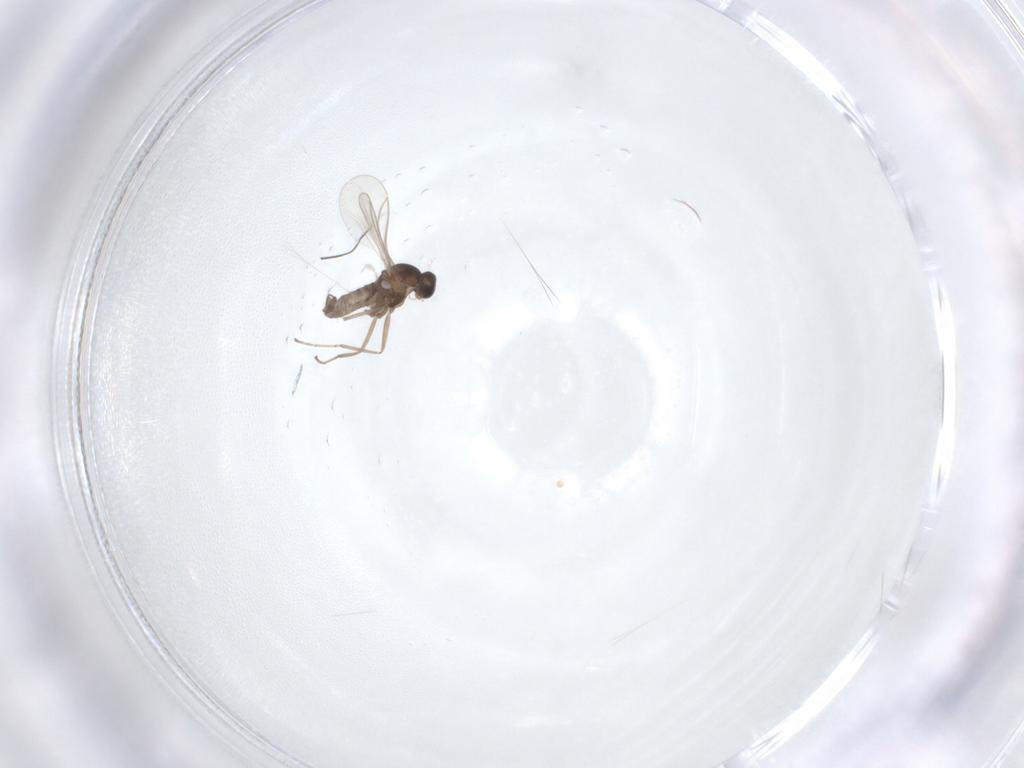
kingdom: Animalia
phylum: Arthropoda
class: Insecta
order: Diptera
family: Cecidomyiidae
